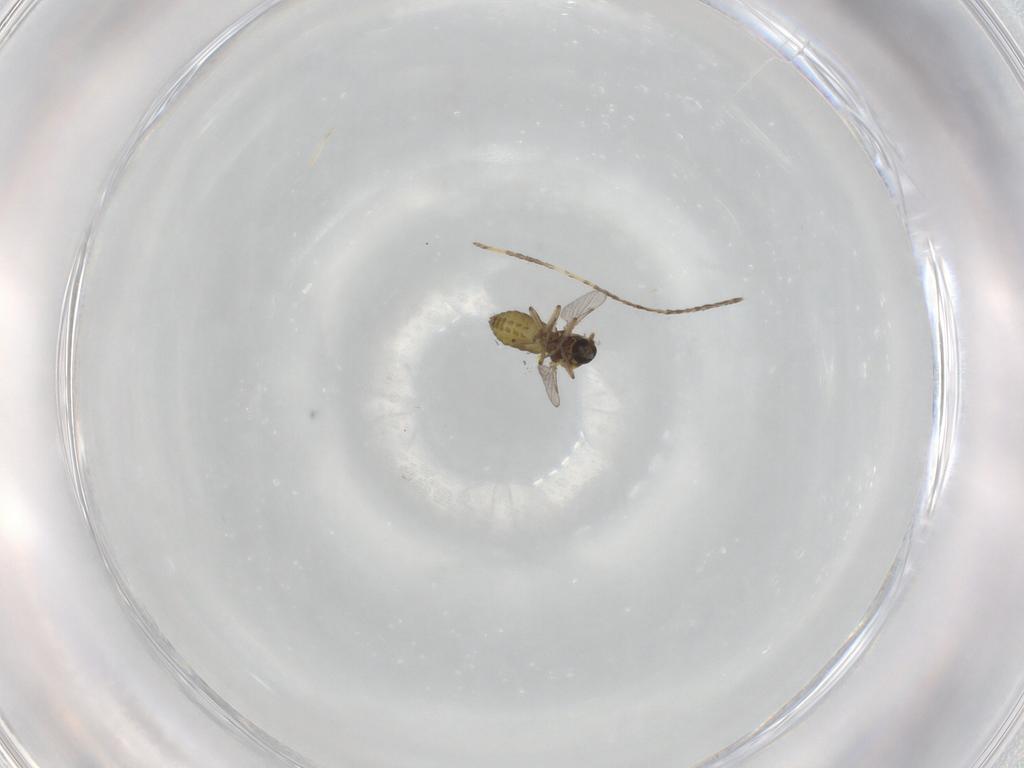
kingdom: Animalia
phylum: Arthropoda
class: Insecta
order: Diptera
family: Ceratopogonidae
